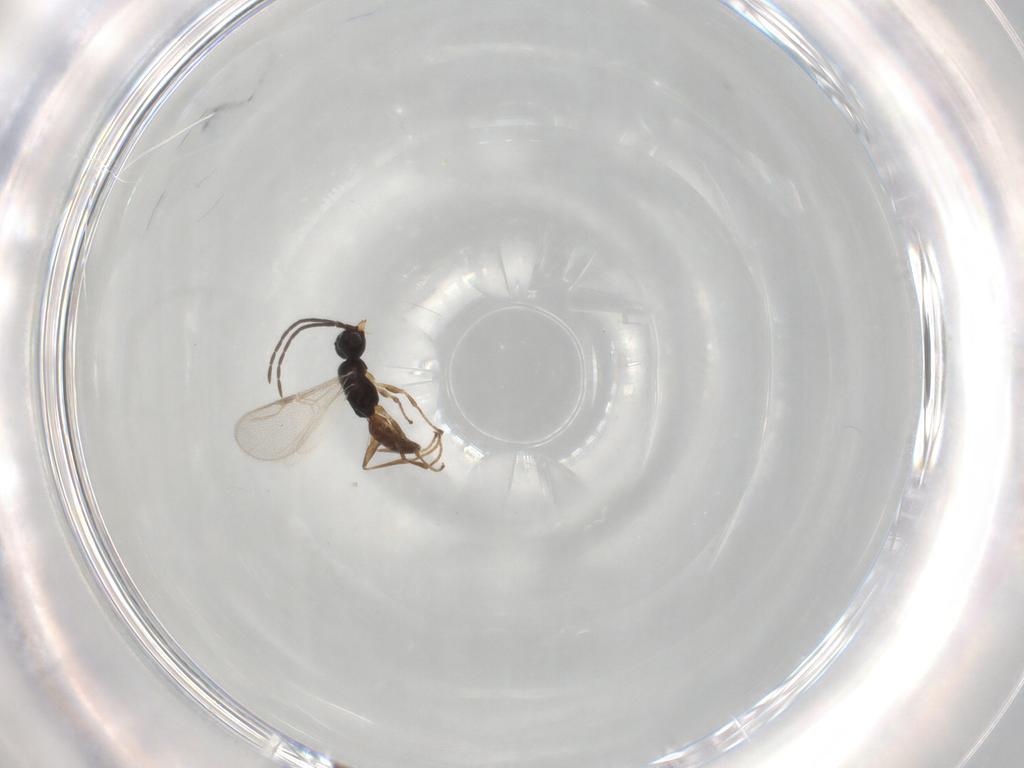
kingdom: Animalia
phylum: Arthropoda
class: Insecta
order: Hymenoptera
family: Dryinidae
